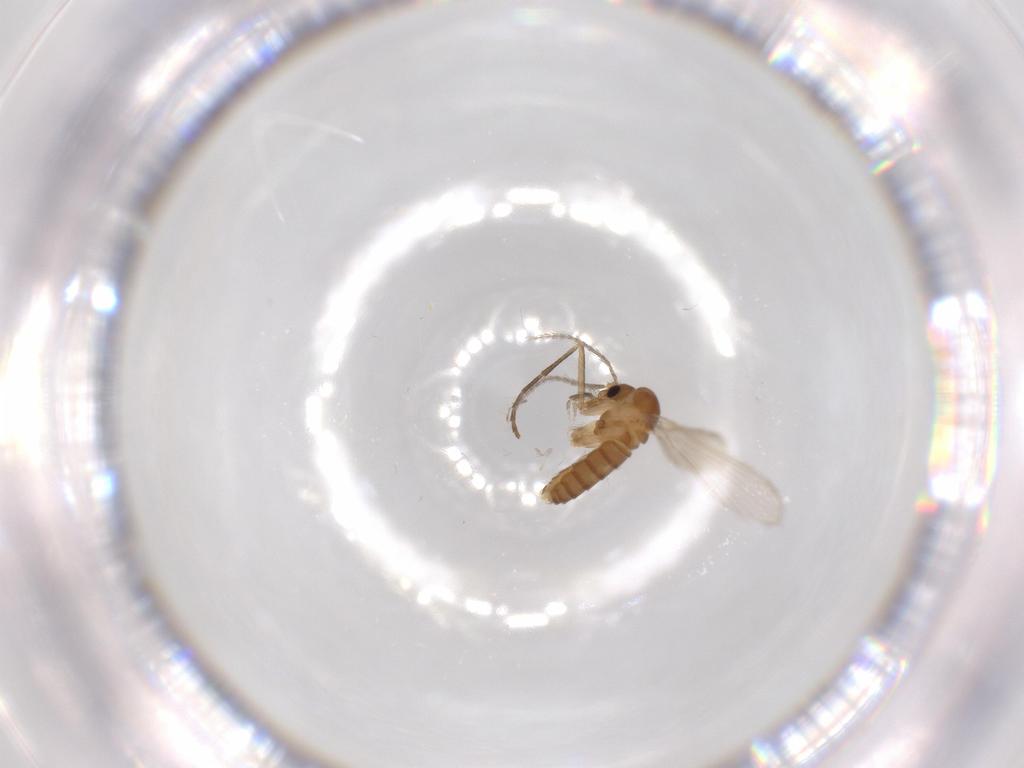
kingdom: Animalia
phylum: Arthropoda
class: Insecta
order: Diptera
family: Psychodidae
